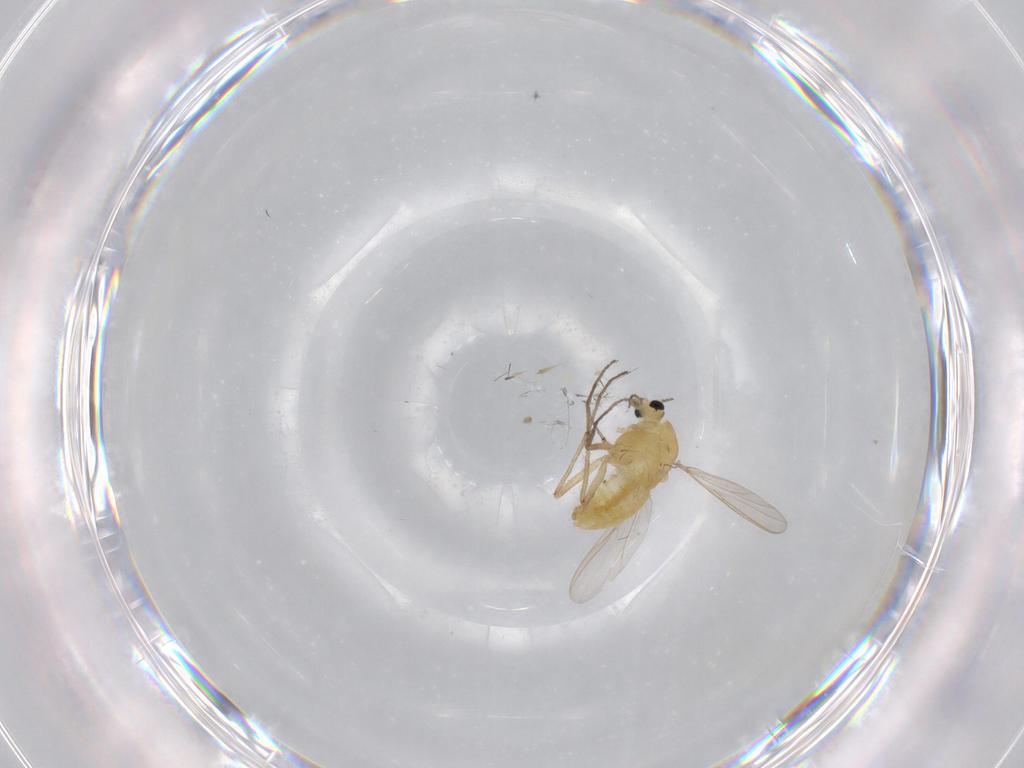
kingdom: Animalia
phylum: Arthropoda
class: Insecta
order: Diptera
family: Chironomidae
